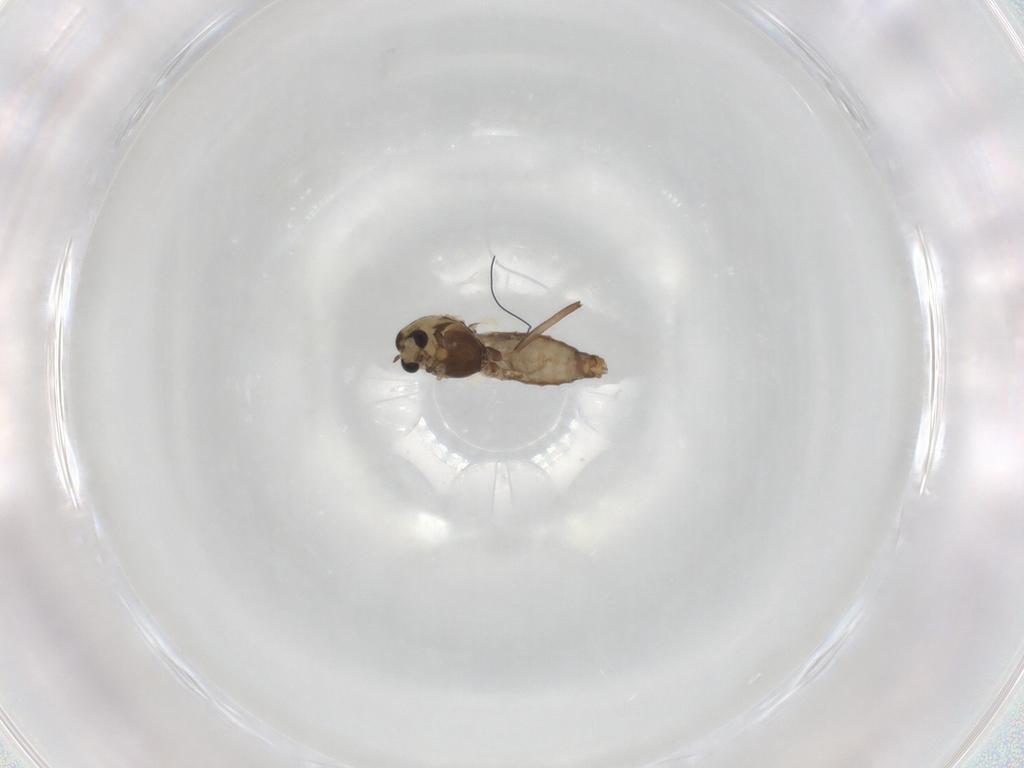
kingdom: Animalia
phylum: Arthropoda
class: Insecta
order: Diptera
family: Chironomidae
